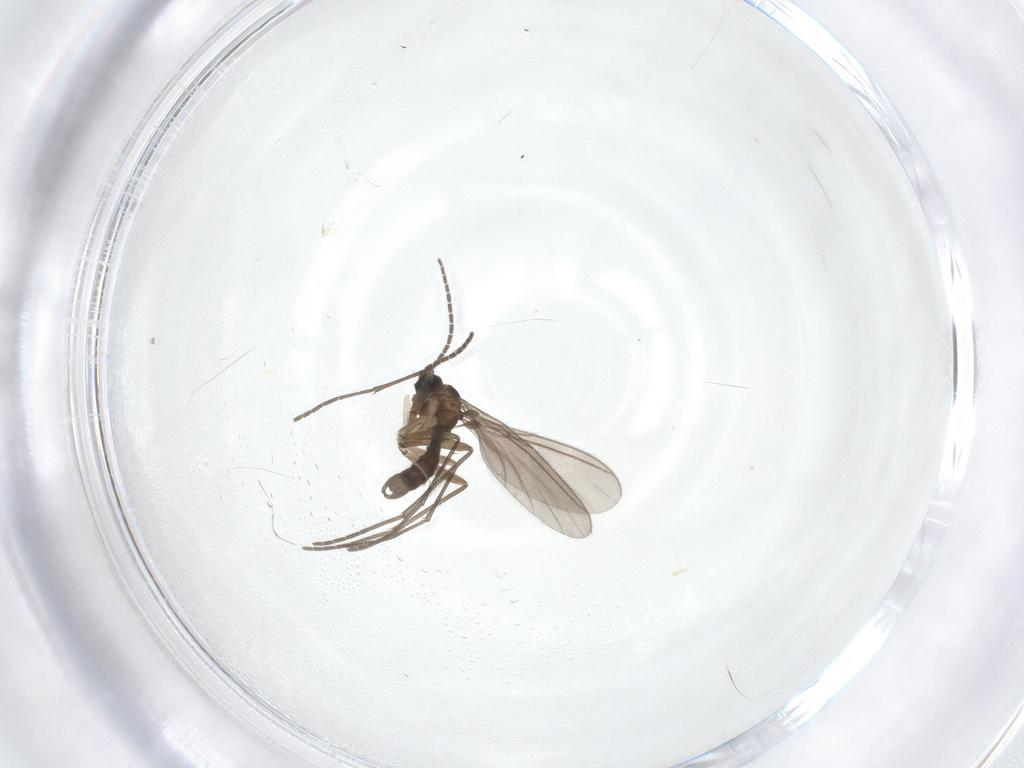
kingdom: Animalia
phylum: Arthropoda
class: Insecta
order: Diptera
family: Sciaridae
